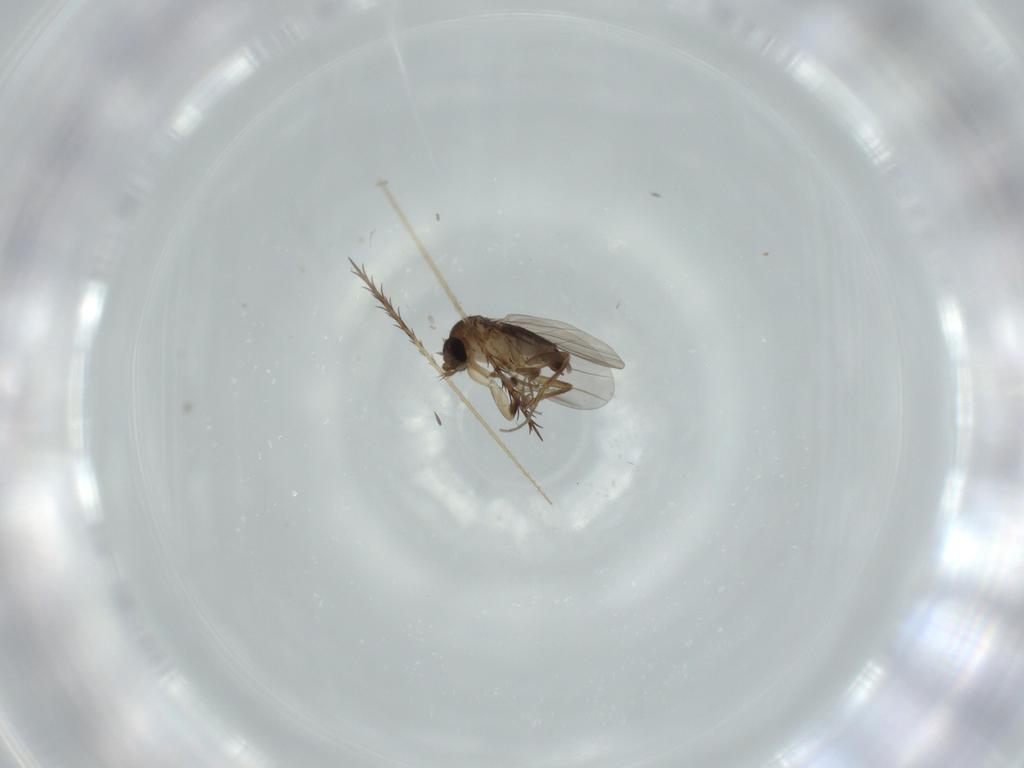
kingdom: Animalia
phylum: Arthropoda
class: Insecta
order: Diptera
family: Phoridae
